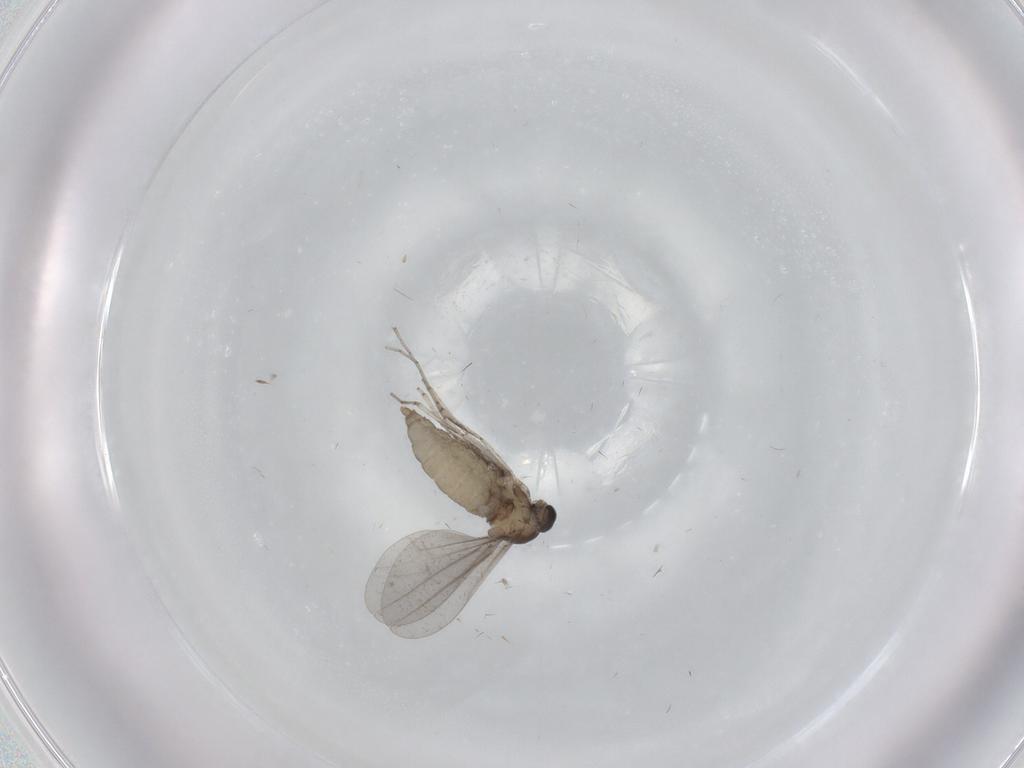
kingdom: Animalia
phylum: Arthropoda
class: Insecta
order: Diptera
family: Sciaridae
